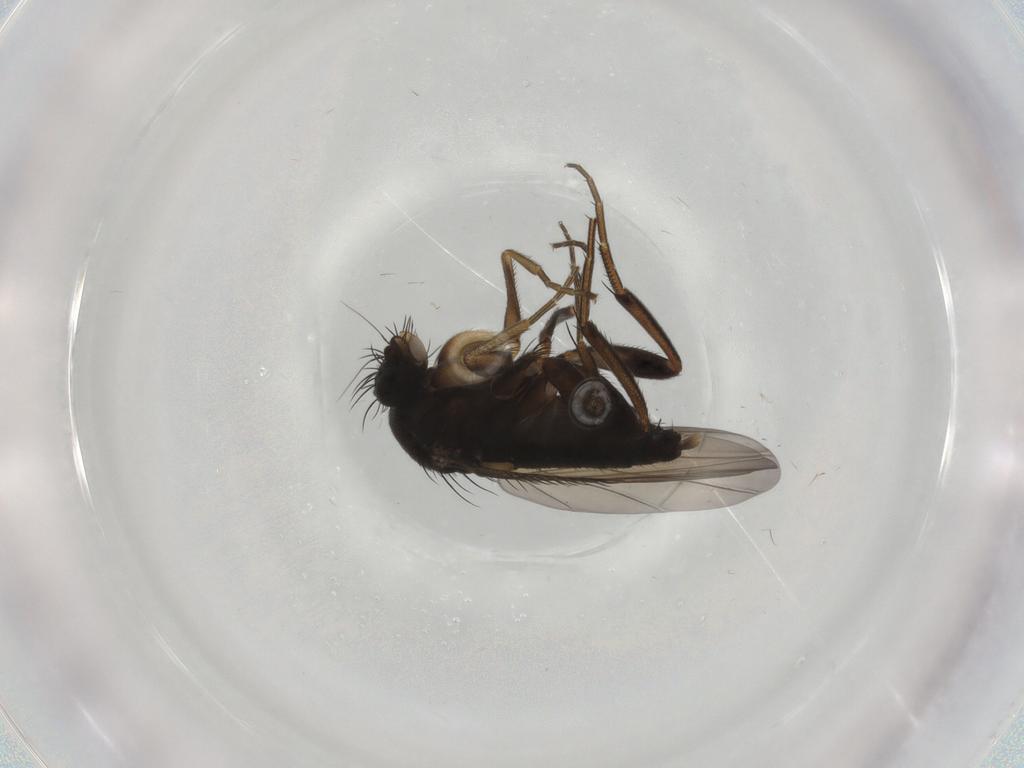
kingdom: Animalia
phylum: Arthropoda
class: Insecta
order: Diptera
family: Phoridae
